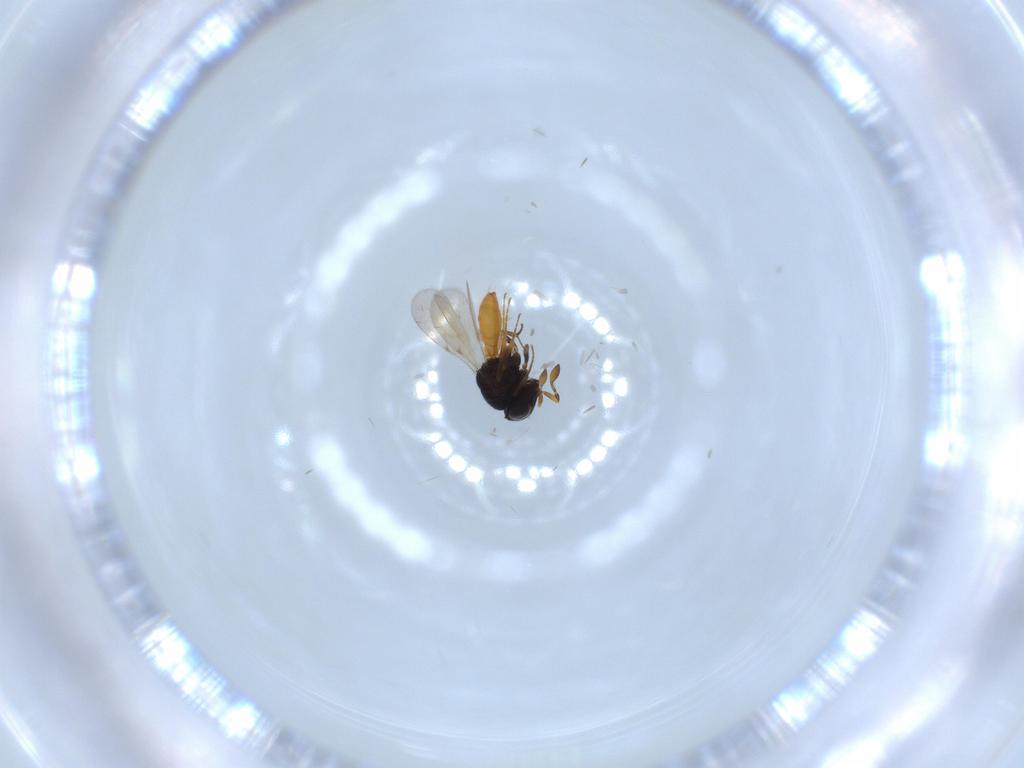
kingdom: Animalia
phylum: Arthropoda
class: Insecta
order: Hymenoptera
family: Scelionidae
